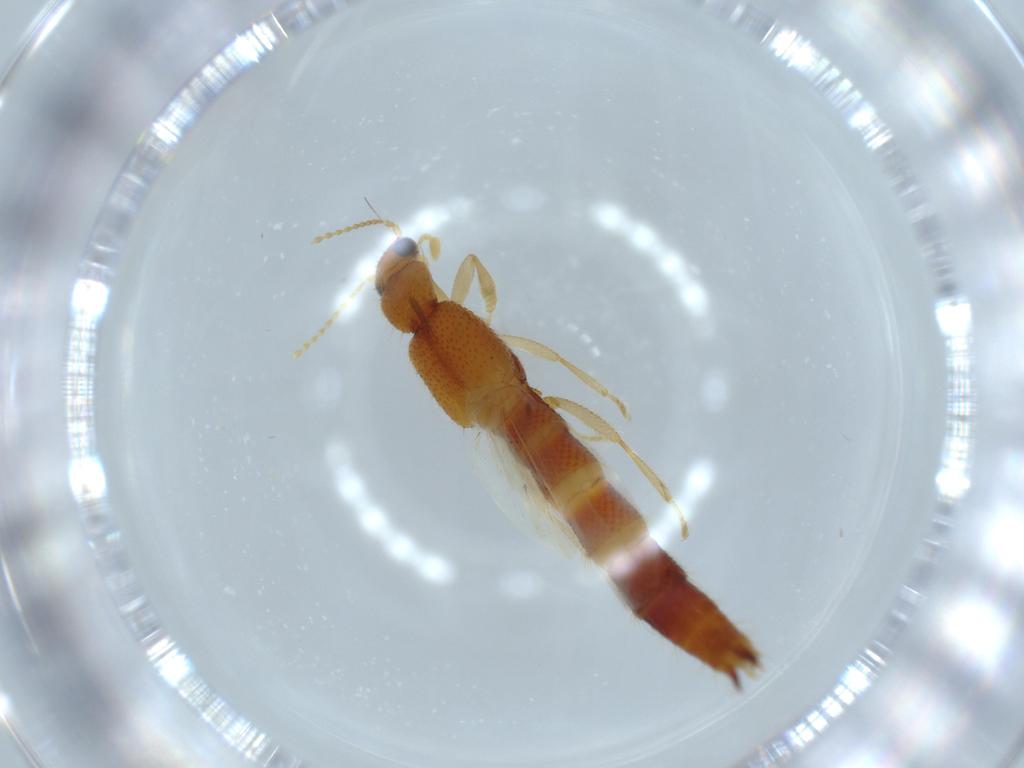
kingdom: Animalia
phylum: Arthropoda
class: Insecta
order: Coleoptera
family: Staphylinidae
